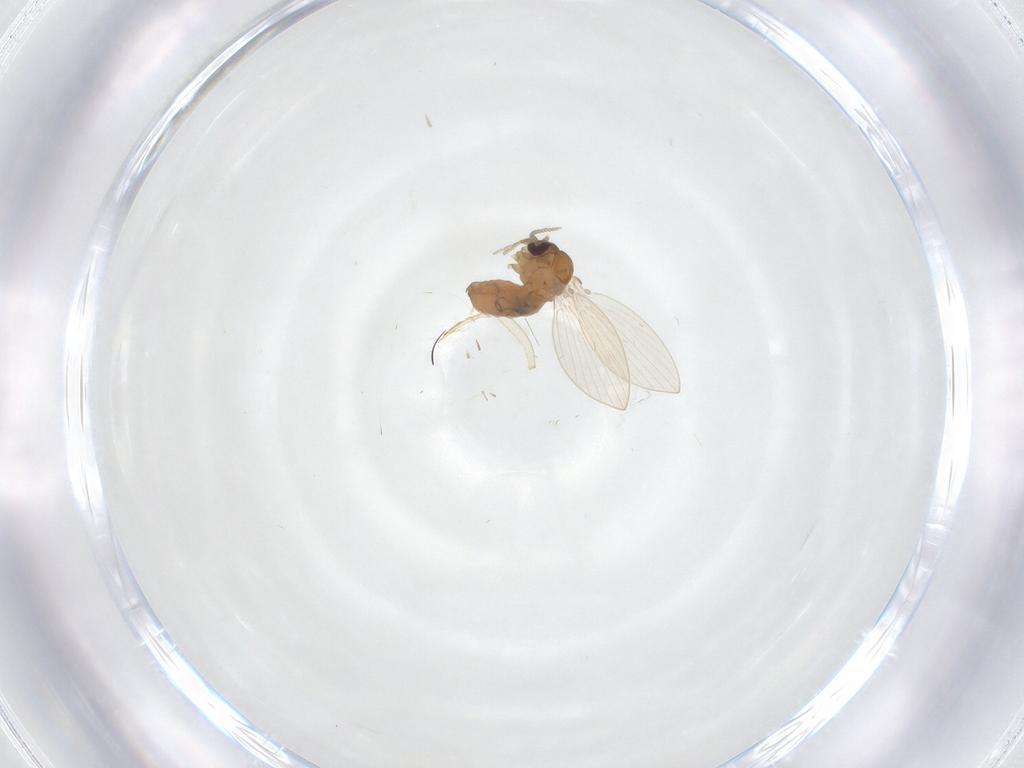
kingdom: Animalia
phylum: Arthropoda
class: Insecta
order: Diptera
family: Psychodidae
